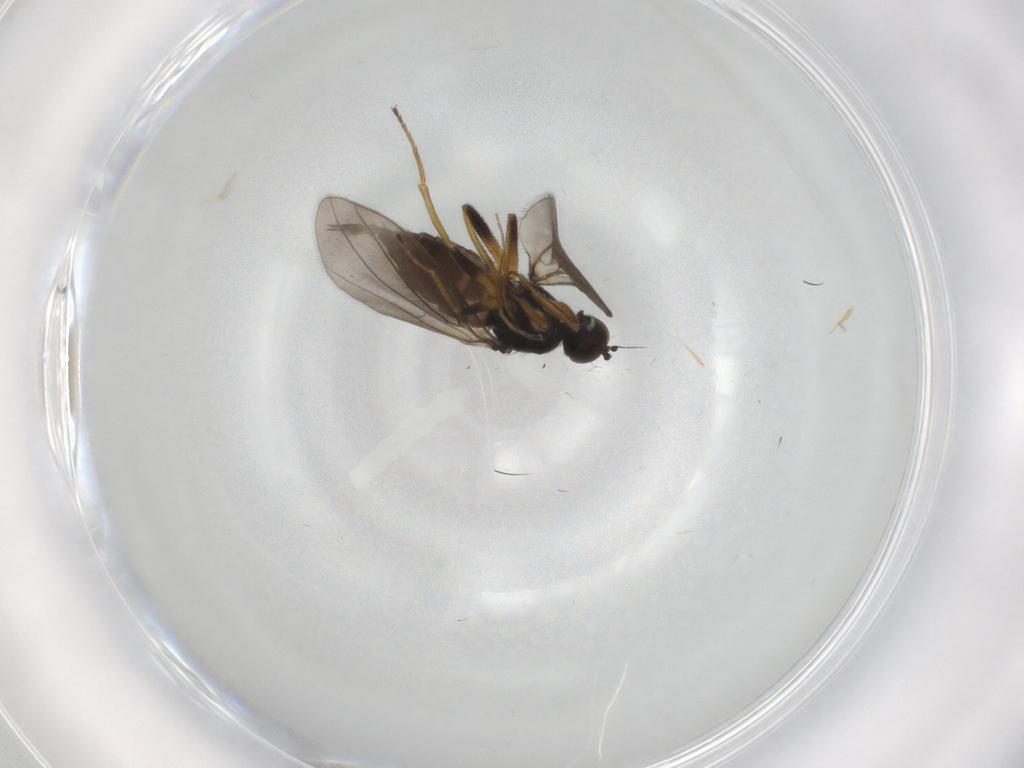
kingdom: Animalia
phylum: Arthropoda
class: Insecta
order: Diptera
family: Hybotidae
